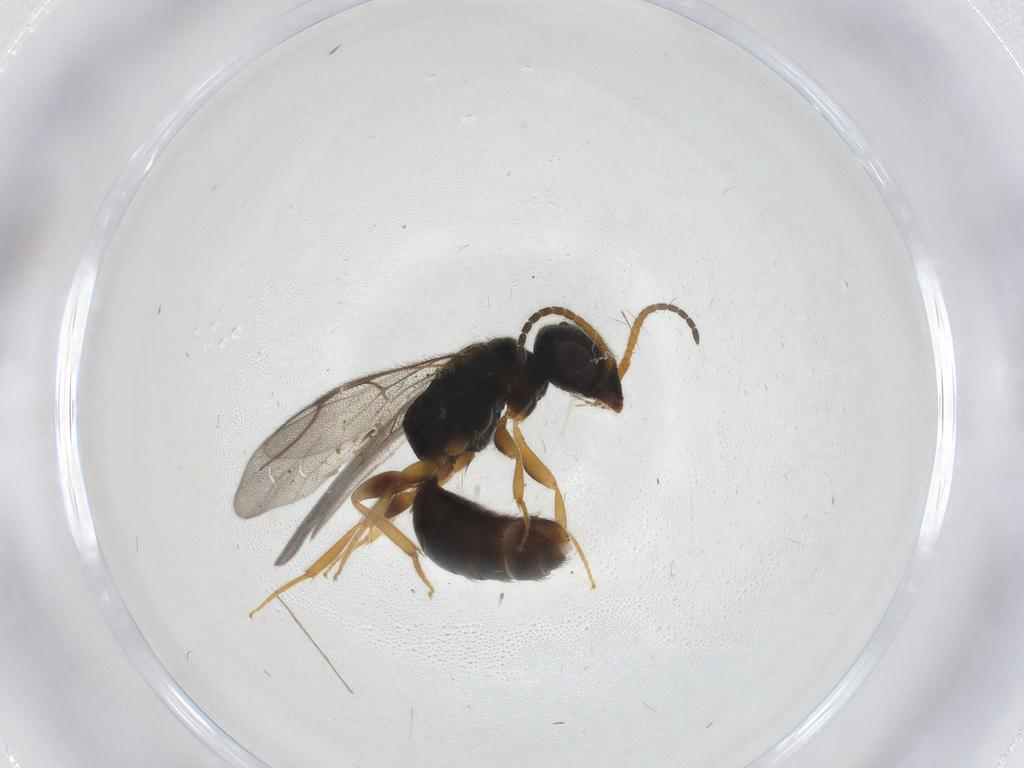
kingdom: Animalia
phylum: Arthropoda
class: Insecta
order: Hymenoptera
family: Bethylidae
